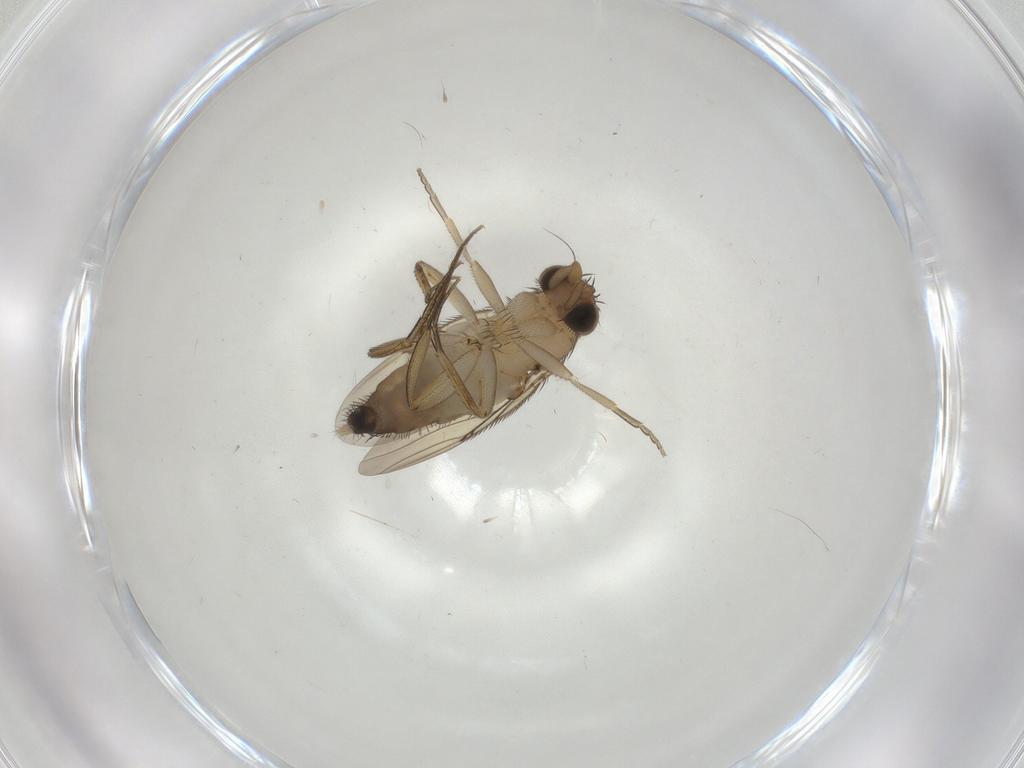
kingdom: Animalia
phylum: Arthropoda
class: Insecta
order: Diptera
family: Phoridae
